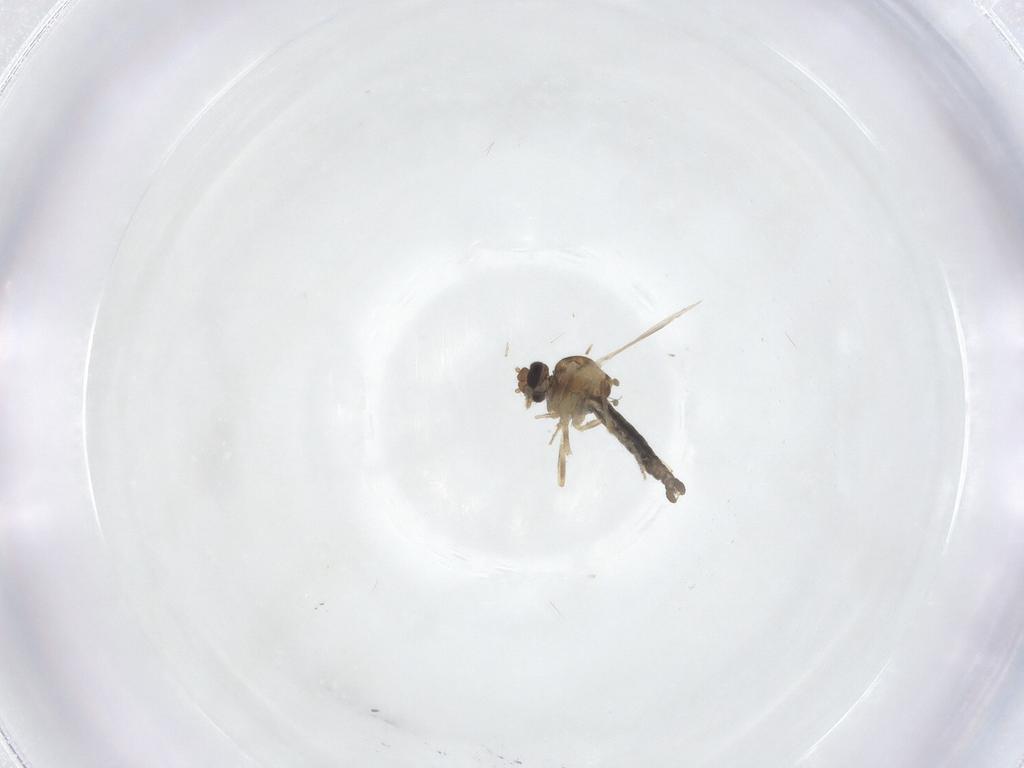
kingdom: Animalia
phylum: Arthropoda
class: Insecta
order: Diptera
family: Ceratopogonidae
